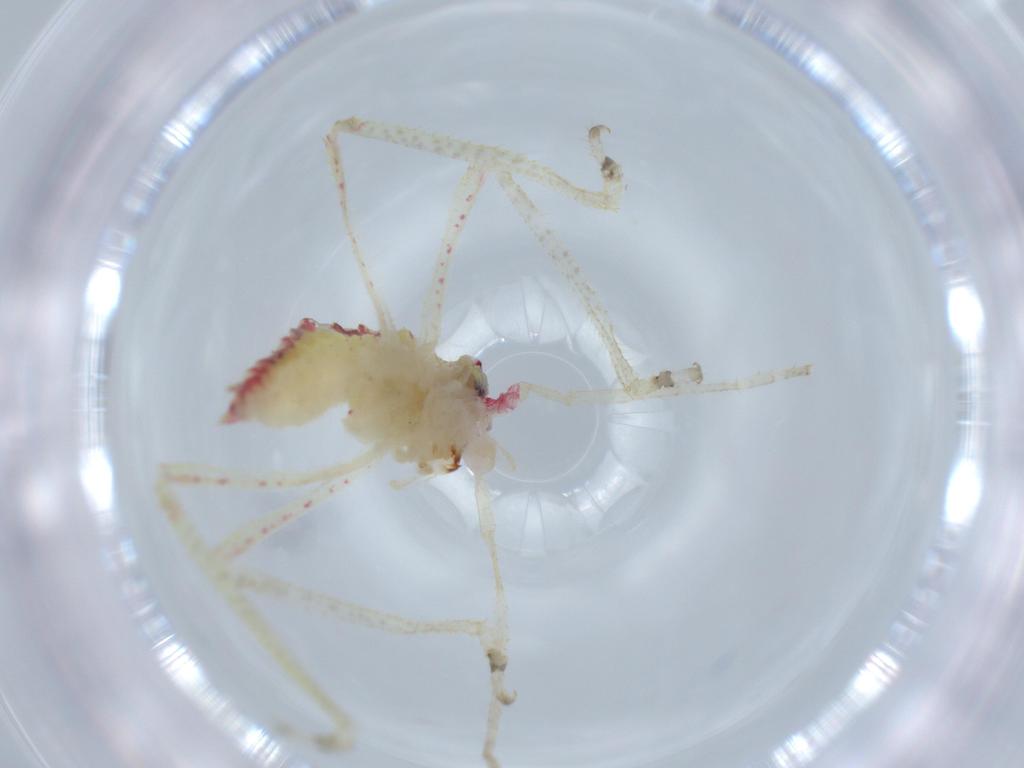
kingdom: Animalia
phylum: Arthropoda
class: Insecta
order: Orthoptera
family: Tettigoniidae
